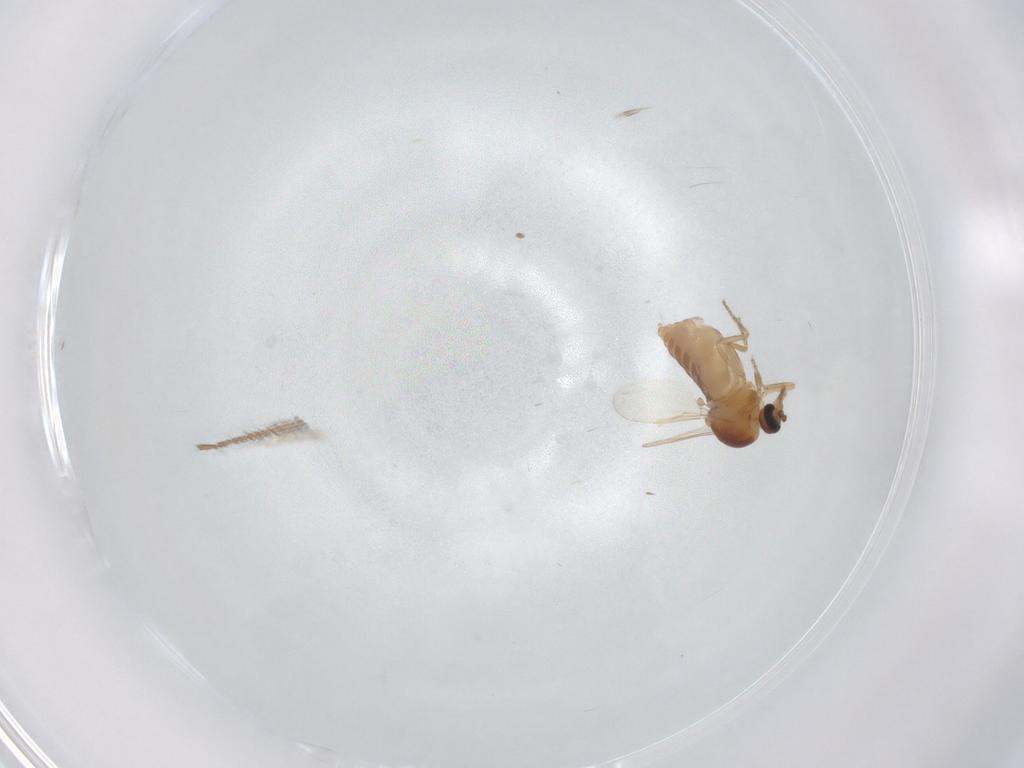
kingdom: Animalia
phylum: Arthropoda
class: Insecta
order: Diptera
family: Ceratopogonidae
